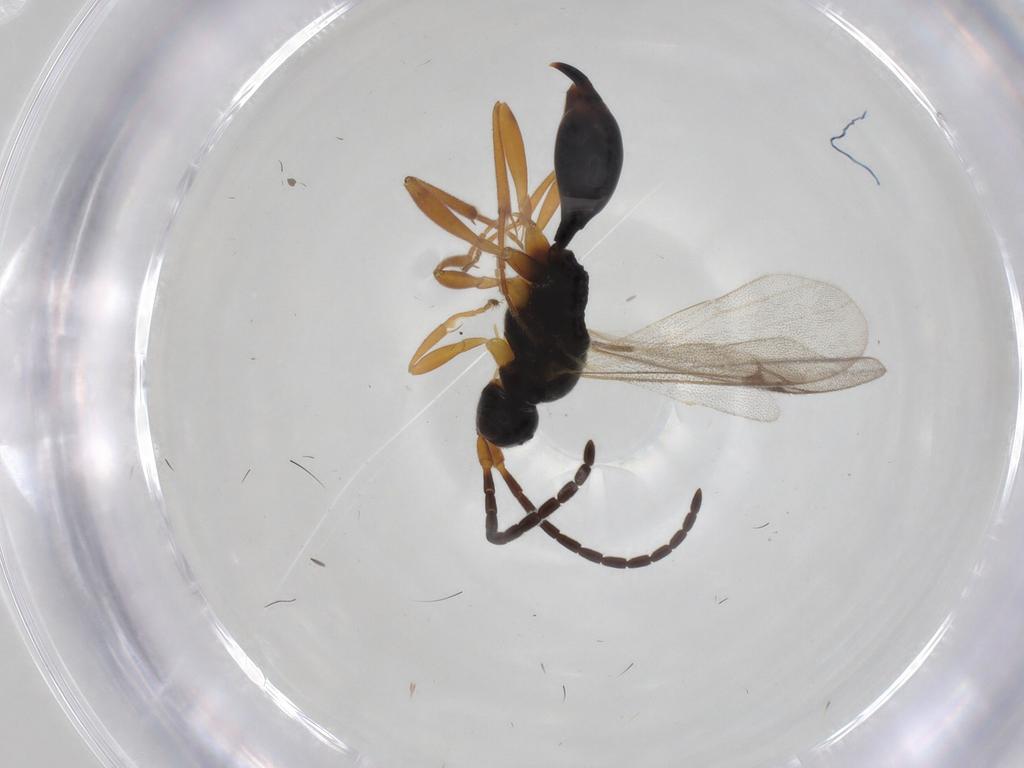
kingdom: Animalia
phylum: Arthropoda
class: Insecta
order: Hymenoptera
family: Proctotrupidae
